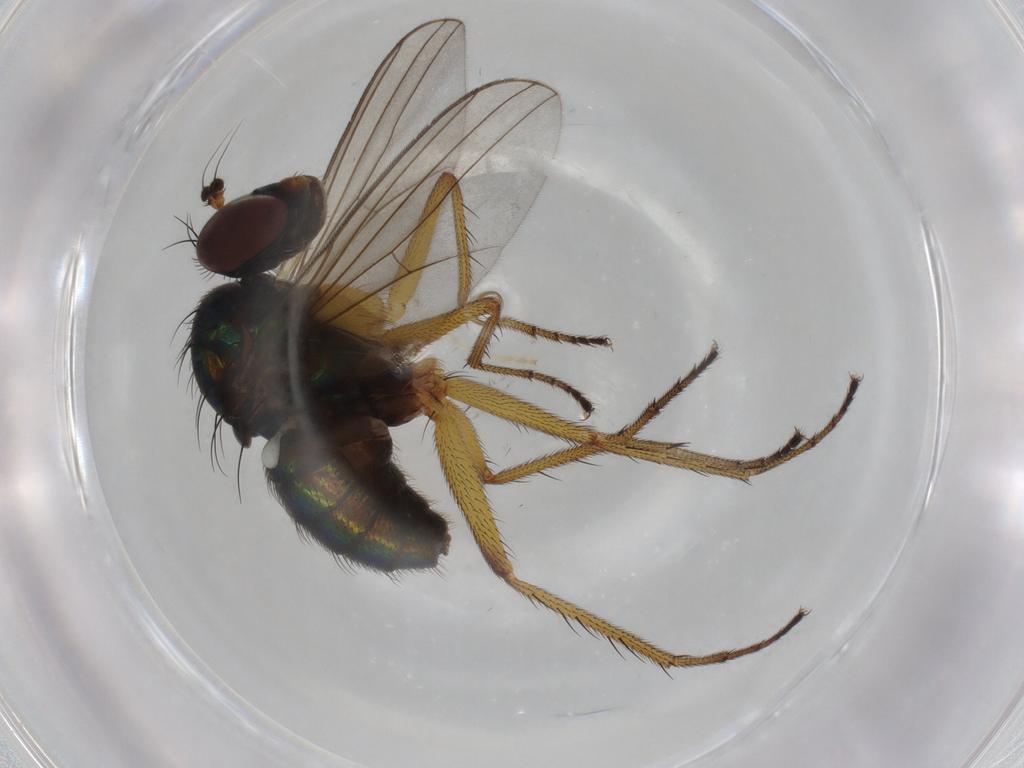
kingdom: Animalia
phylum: Arthropoda
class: Insecta
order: Diptera
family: Chironomidae
